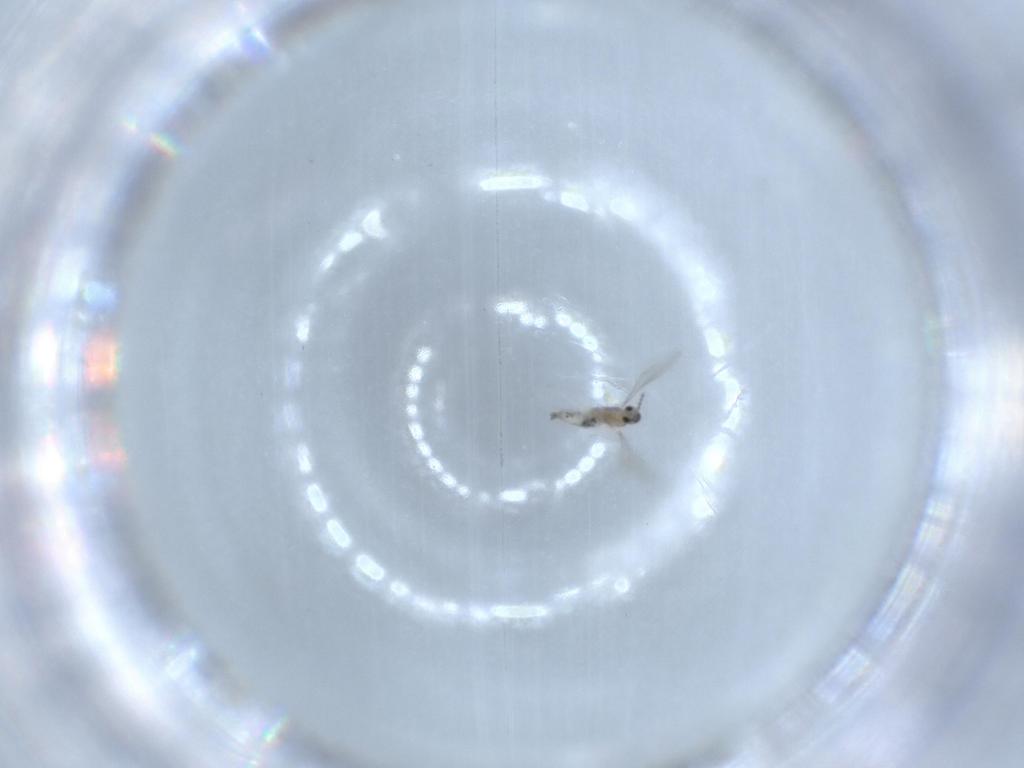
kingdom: Animalia
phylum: Arthropoda
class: Insecta
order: Diptera
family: Cecidomyiidae
